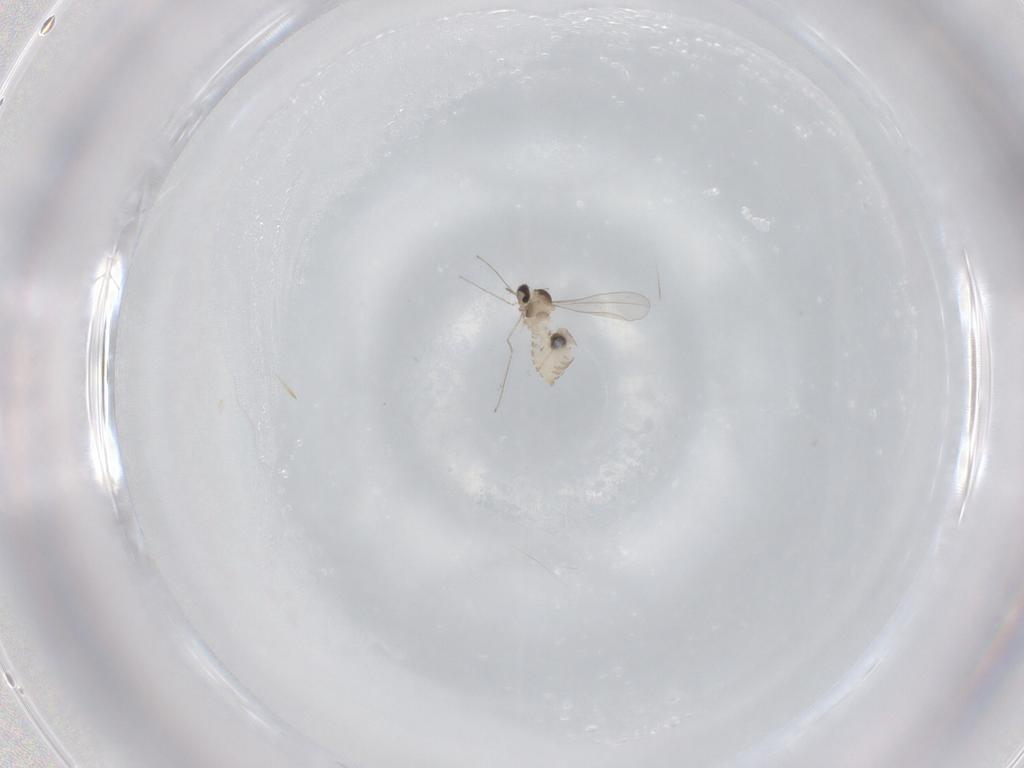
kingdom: Animalia
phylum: Arthropoda
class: Insecta
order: Diptera
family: Cecidomyiidae
